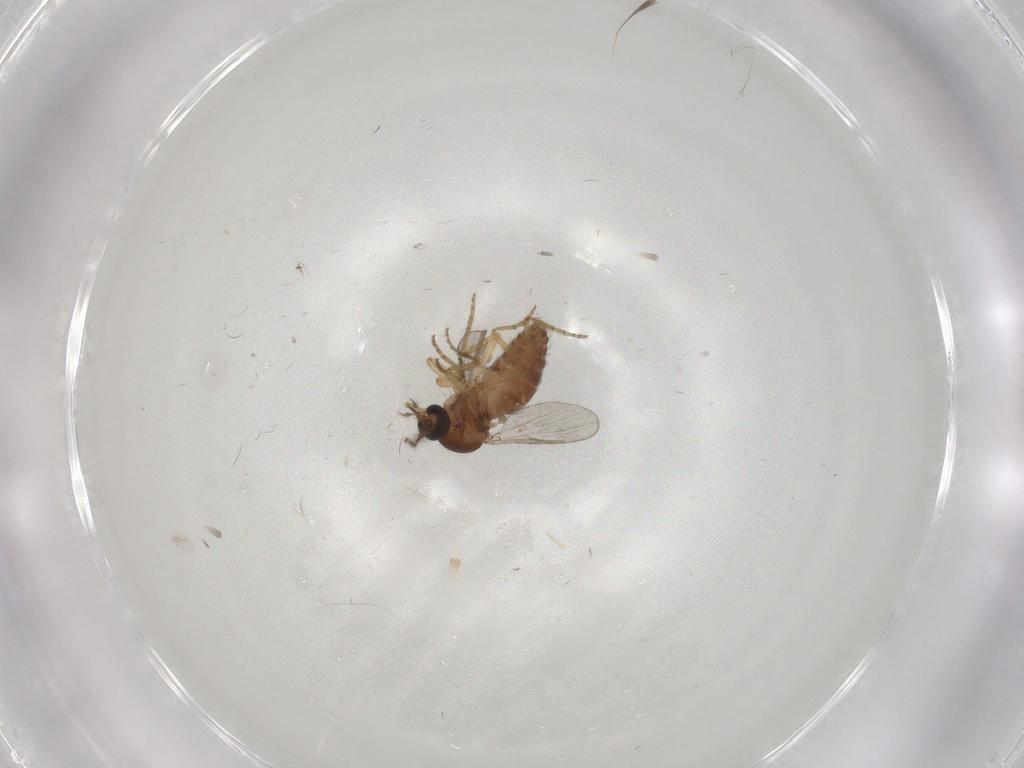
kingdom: Animalia
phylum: Arthropoda
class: Insecta
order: Diptera
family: Ceratopogonidae
